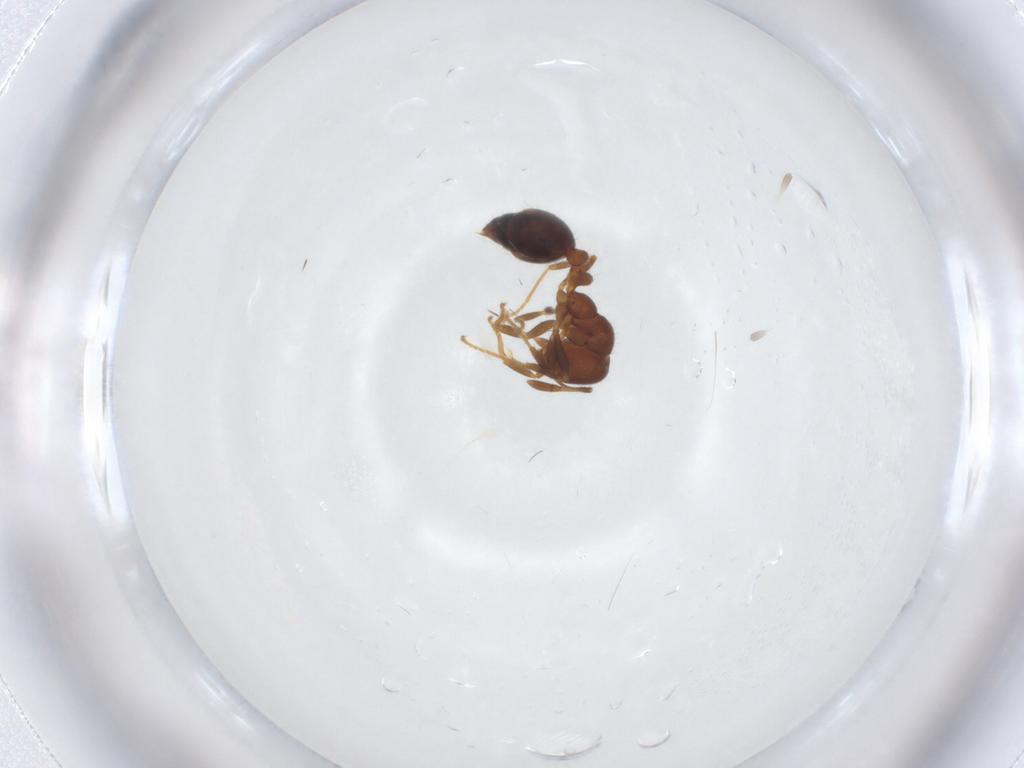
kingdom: Animalia
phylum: Arthropoda
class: Insecta
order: Hymenoptera
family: Formicidae
